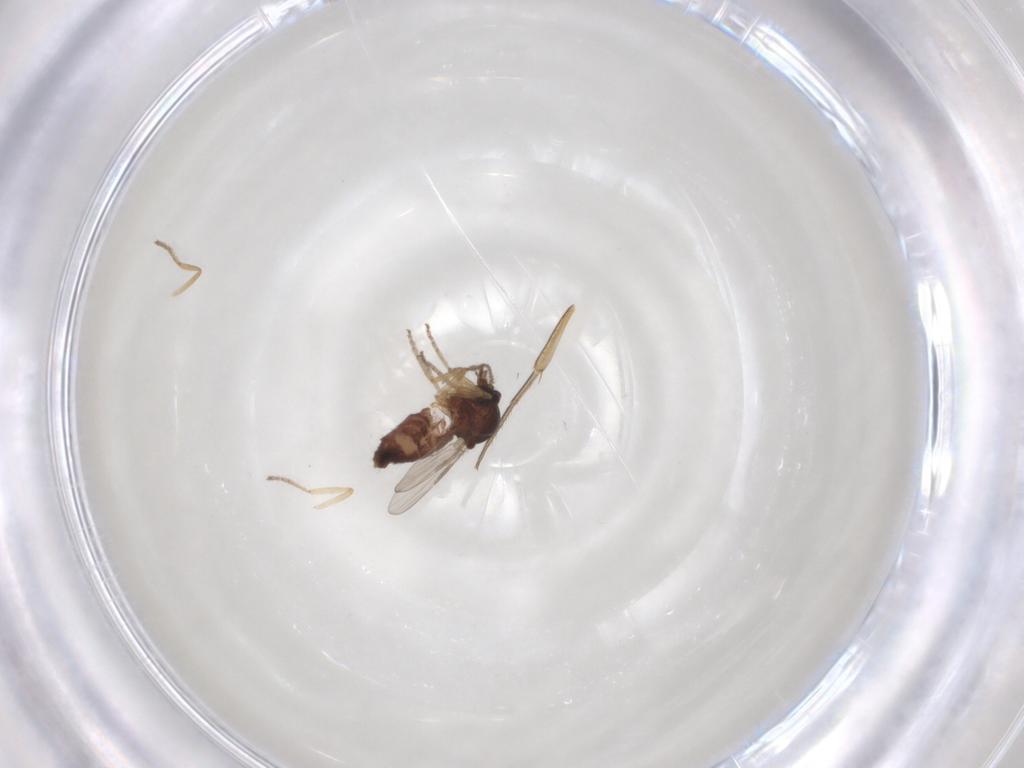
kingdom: Animalia
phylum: Arthropoda
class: Insecta
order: Diptera
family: Ceratopogonidae
